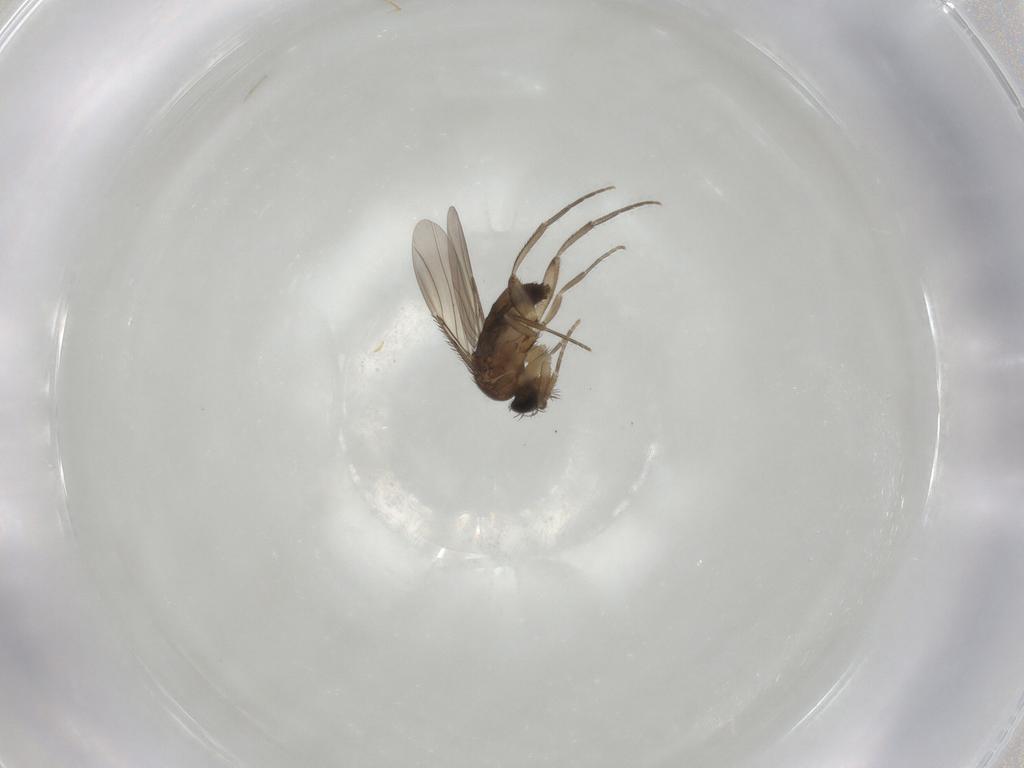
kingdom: Animalia
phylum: Arthropoda
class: Insecta
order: Diptera
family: Phoridae
